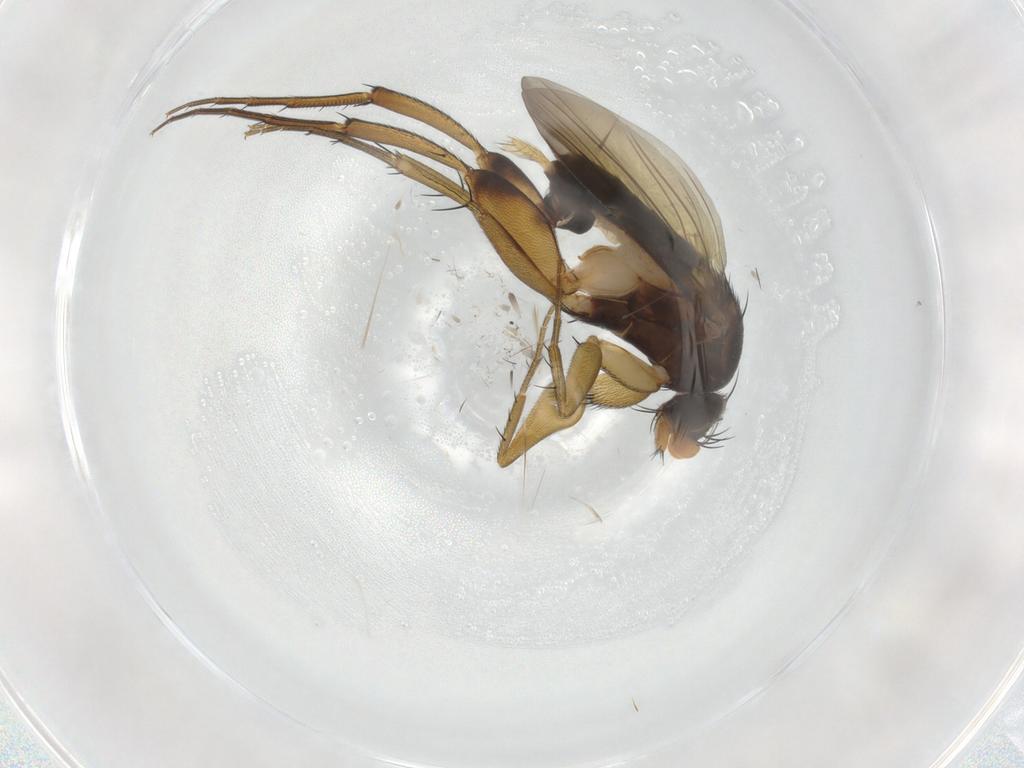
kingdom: Animalia
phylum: Arthropoda
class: Insecta
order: Diptera
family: Phoridae
